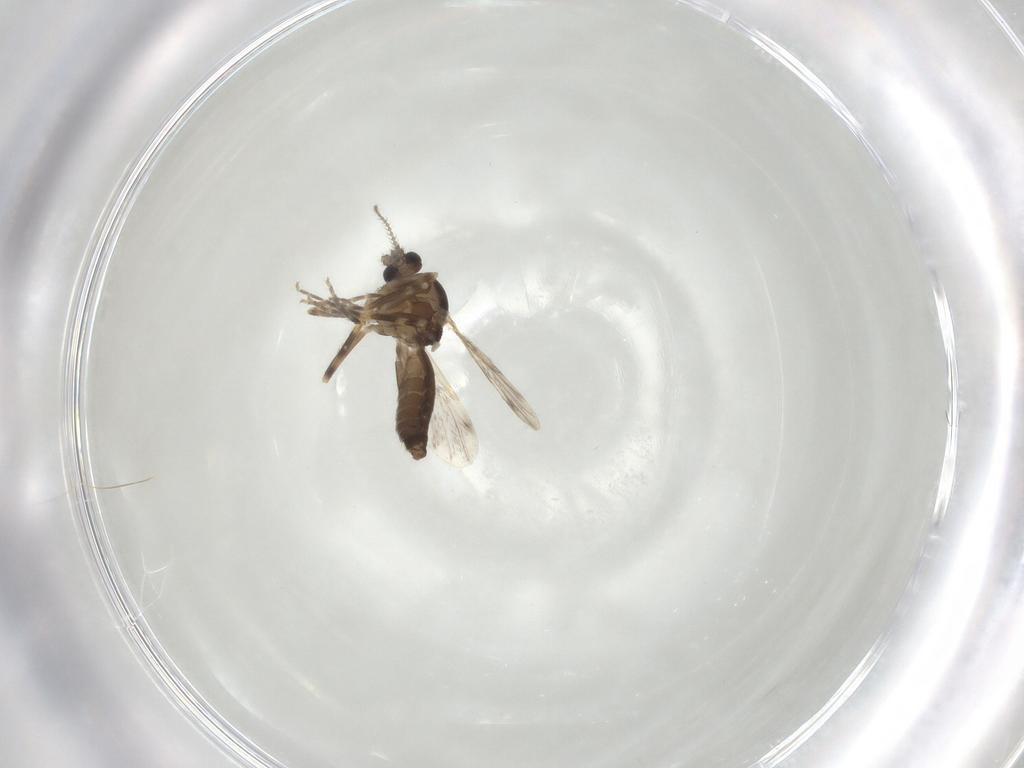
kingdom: Animalia
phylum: Arthropoda
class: Insecta
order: Diptera
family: Ceratopogonidae
